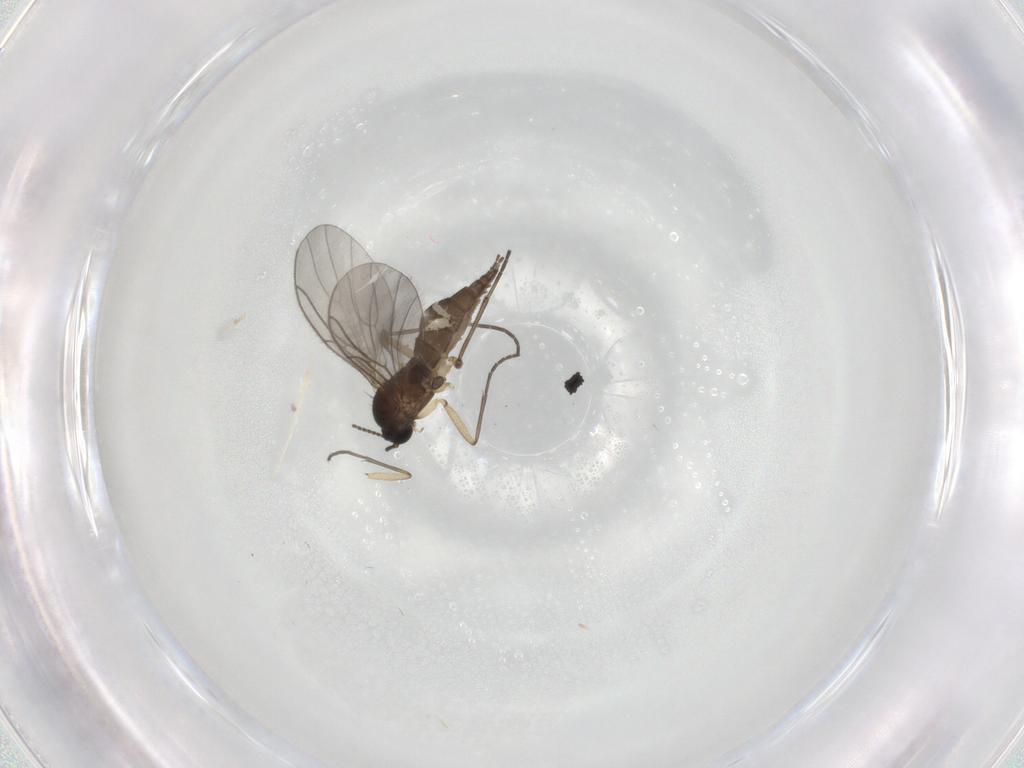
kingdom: Animalia
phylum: Arthropoda
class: Insecta
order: Diptera
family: Sciaridae
